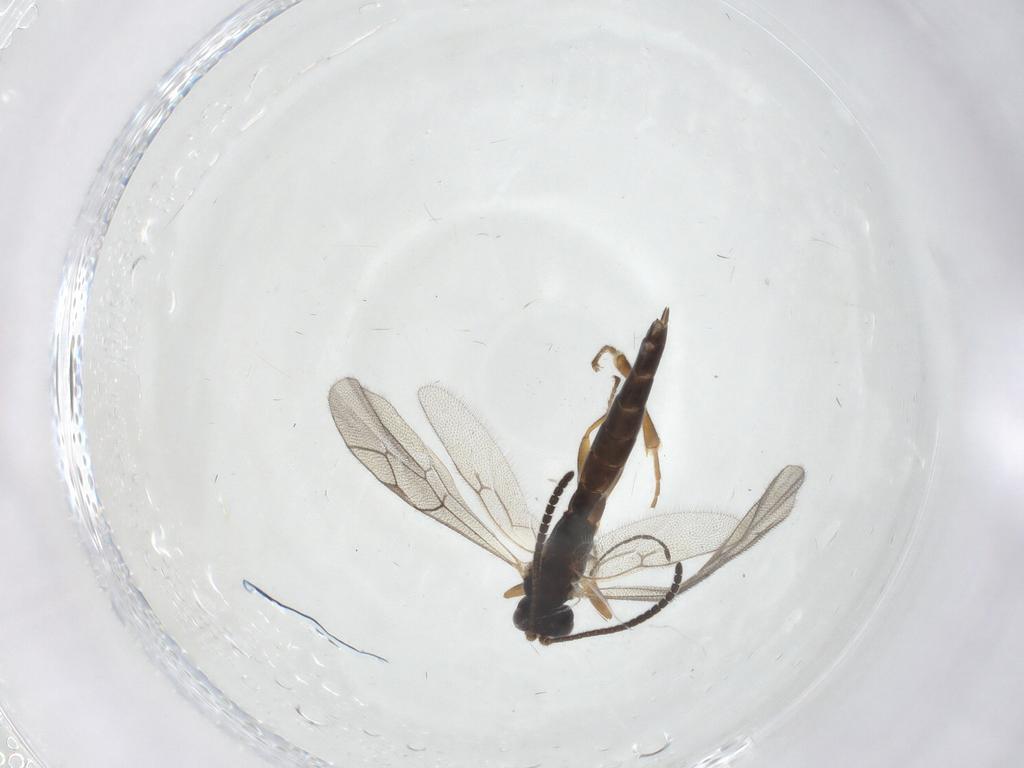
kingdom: Animalia
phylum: Arthropoda
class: Insecta
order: Hymenoptera
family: Ichneumonidae
